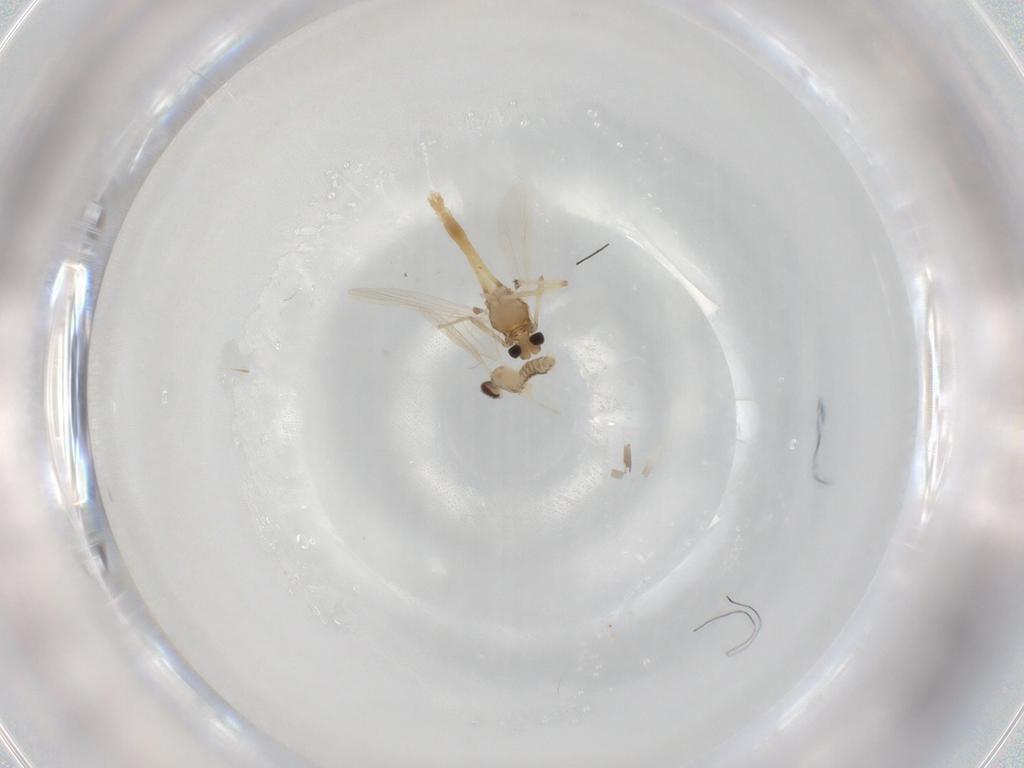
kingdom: Animalia
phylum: Arthropoda
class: Insecta
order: Diptera
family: Cecidomyiidae
